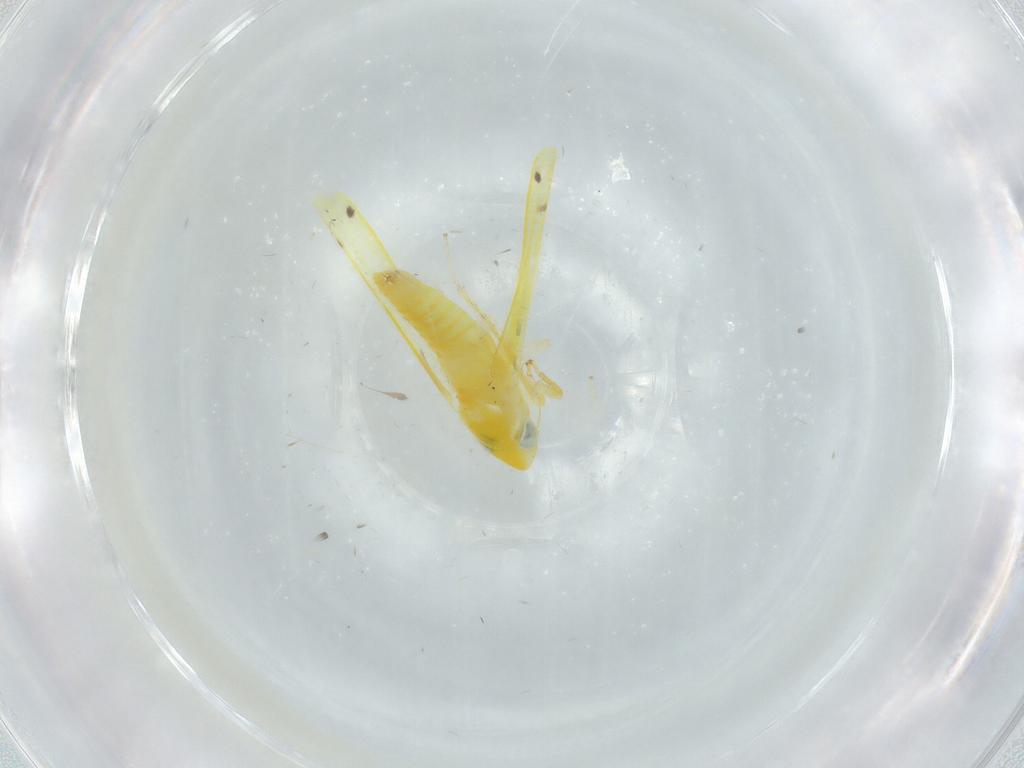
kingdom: Animalia
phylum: Arthropoda
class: Insecta
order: Hemiptera
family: Cicadellidae
